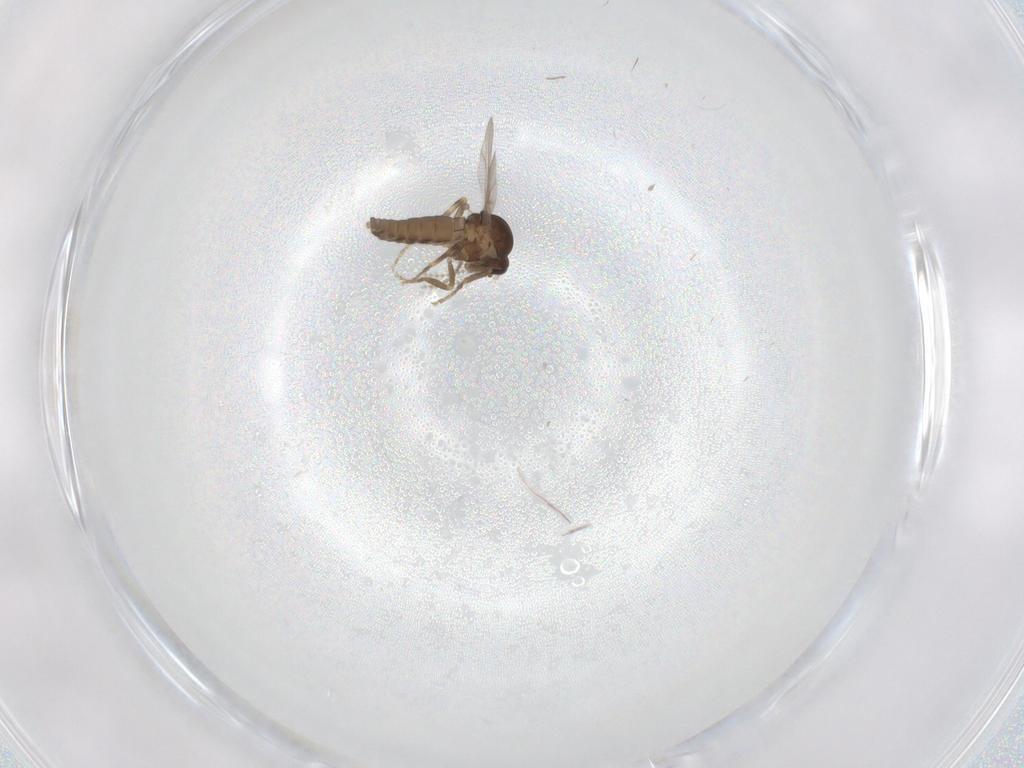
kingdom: Animalia
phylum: Arthropoda
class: Insecta
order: Diptera
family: Ceratopogonidae
